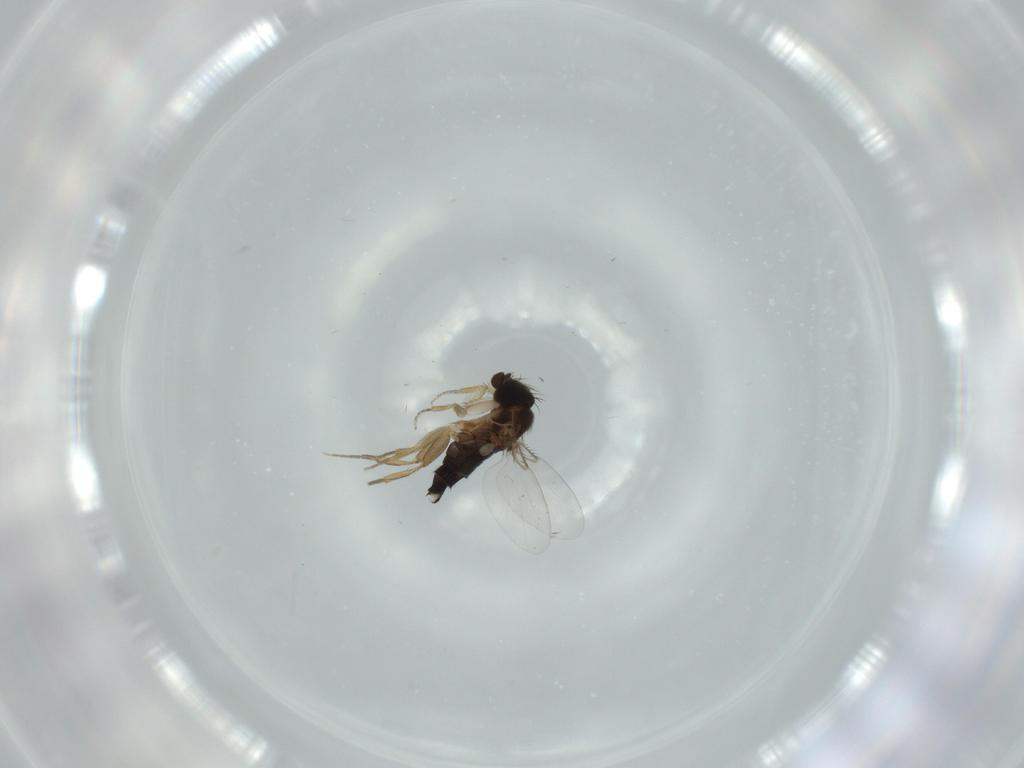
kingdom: Animalia
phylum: Arthropoda
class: Insecta
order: Diptera
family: Phoridae
